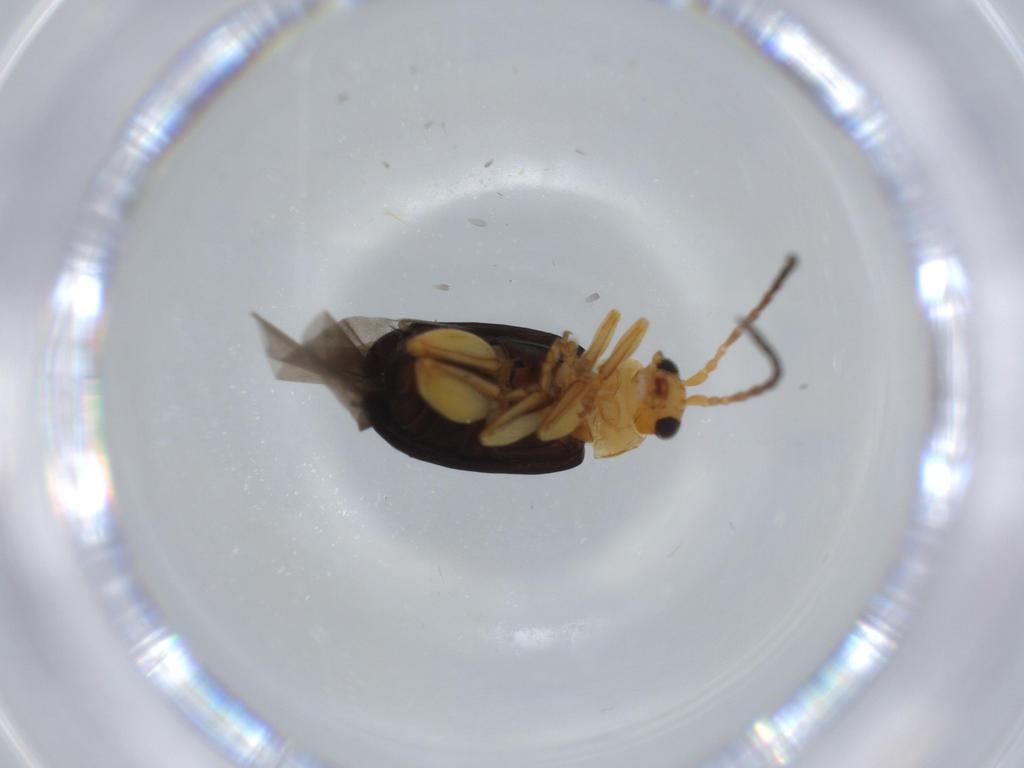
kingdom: Animalia
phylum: Arthropoda
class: Insecta
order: Coleoptera
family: Chrysomelidae
